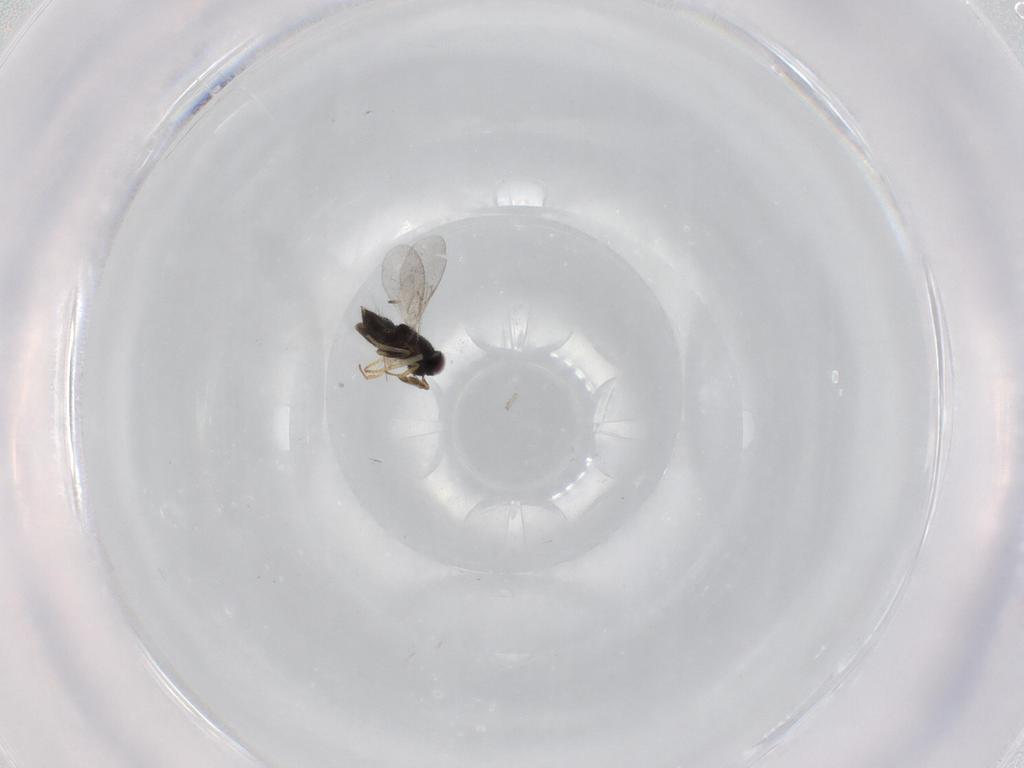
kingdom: Animalia
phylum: Arthropoda
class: Insecta
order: Hymenoptera
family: Encyrtidae
